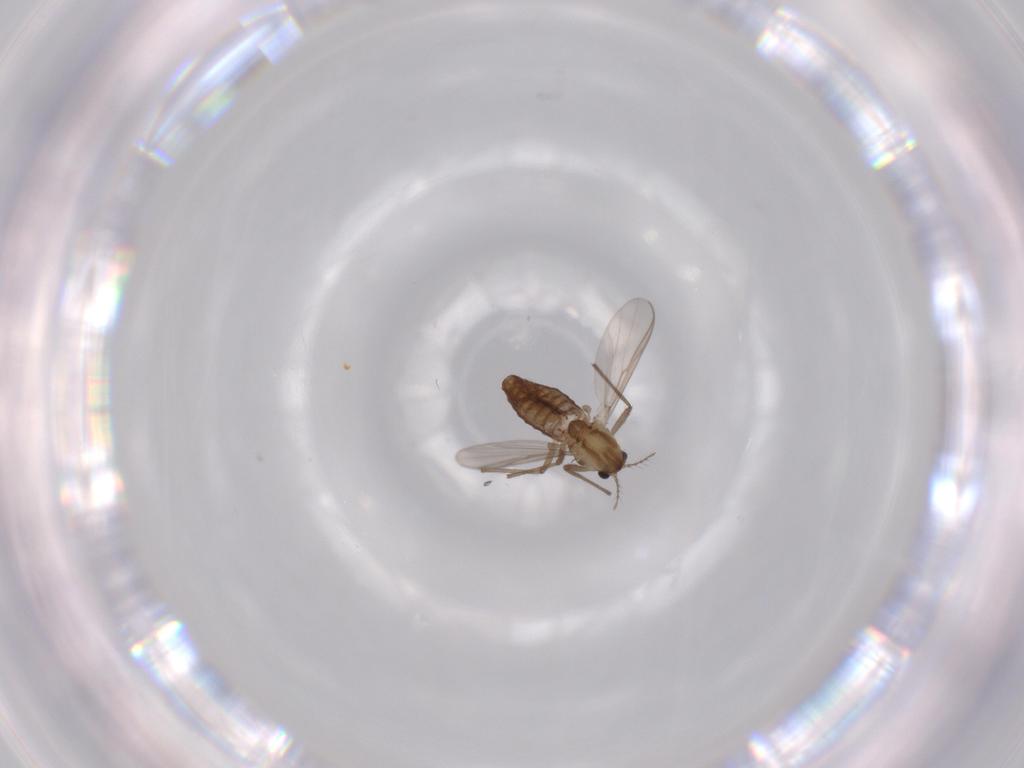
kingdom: Animalia
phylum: Arthropoda
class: Insecta
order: Diptera
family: Chironomidae
